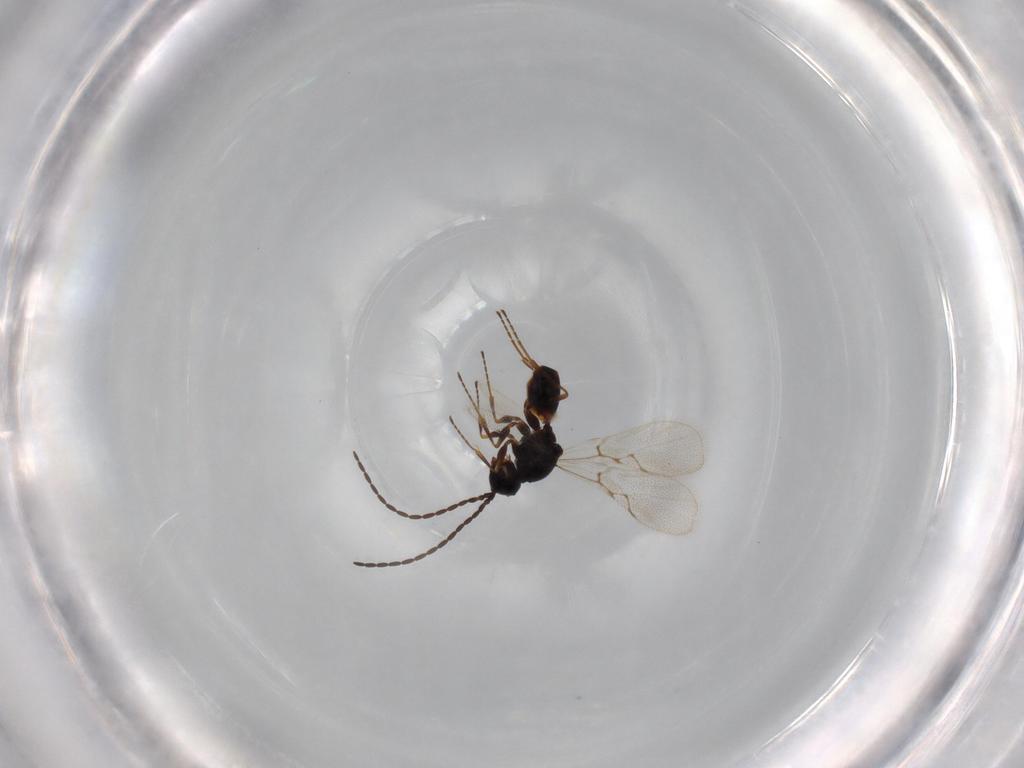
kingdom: Animalia
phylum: Arthropoda
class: Insecta
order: Hymenoptera
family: Figitidae
